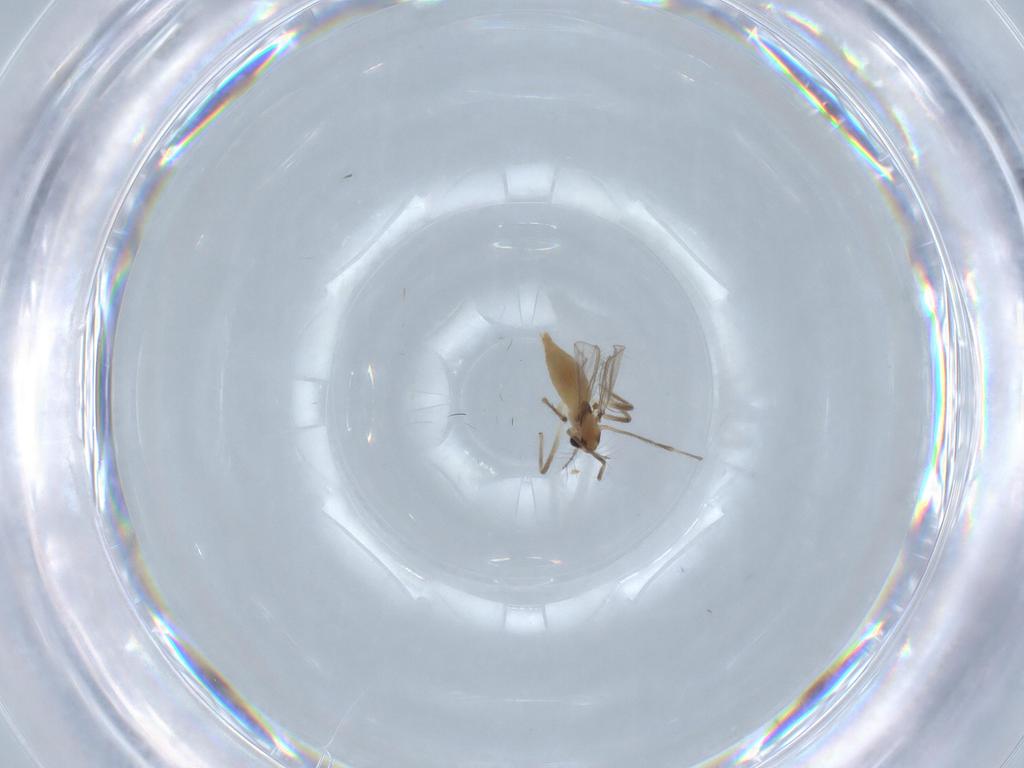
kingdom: Animalia
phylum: Arthropoda
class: Insecta
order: Diptera
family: Chironomidae
